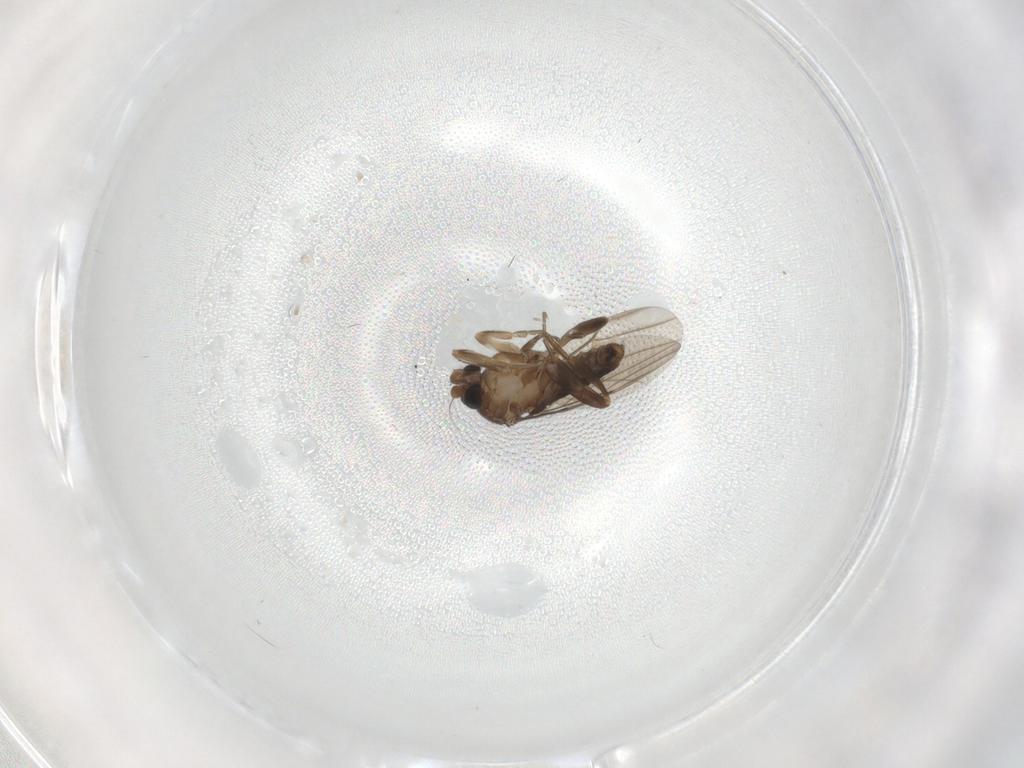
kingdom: Animalia
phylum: Arthropoda
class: Insecta
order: Diptera
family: Phoridae
